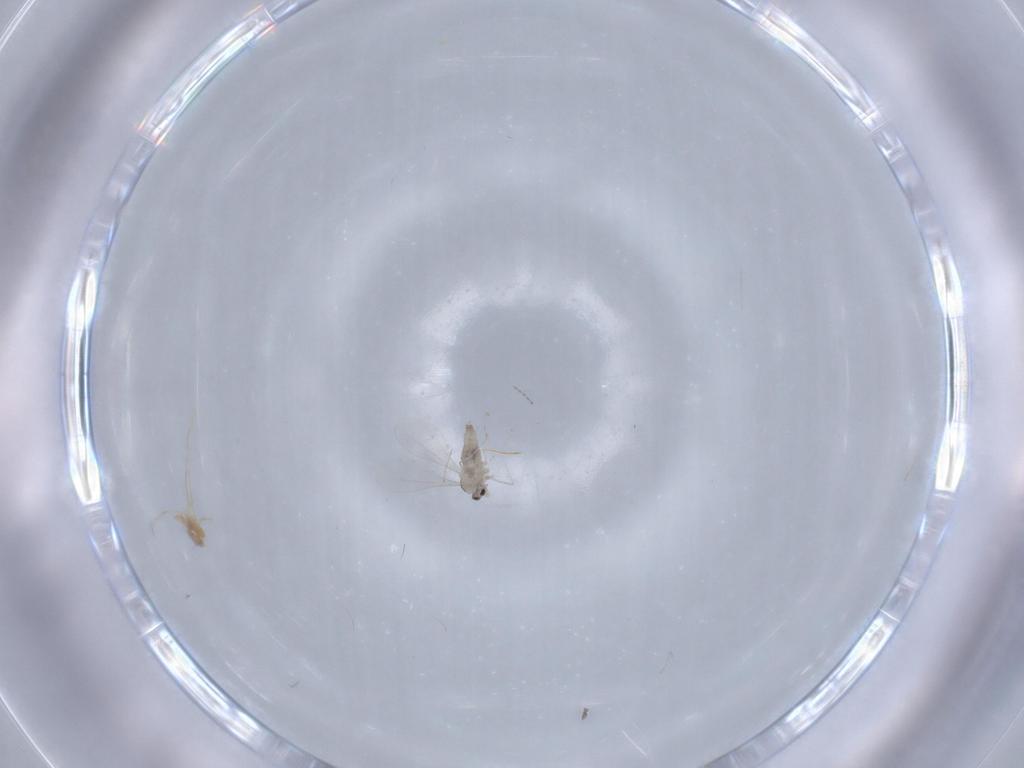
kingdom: Animalia
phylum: Arthropoda
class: Insecta
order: Diptera
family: Cecidomyiidae
